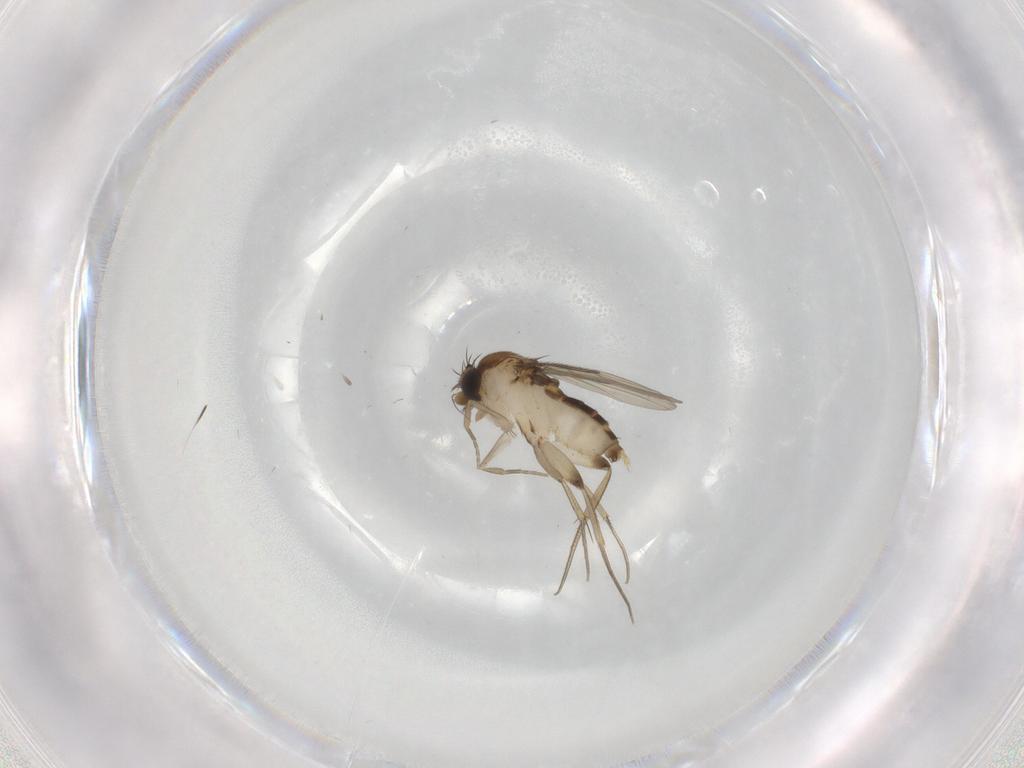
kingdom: Animalia
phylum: Arthropoda
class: Insecta
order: Diptera
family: Phoridae
